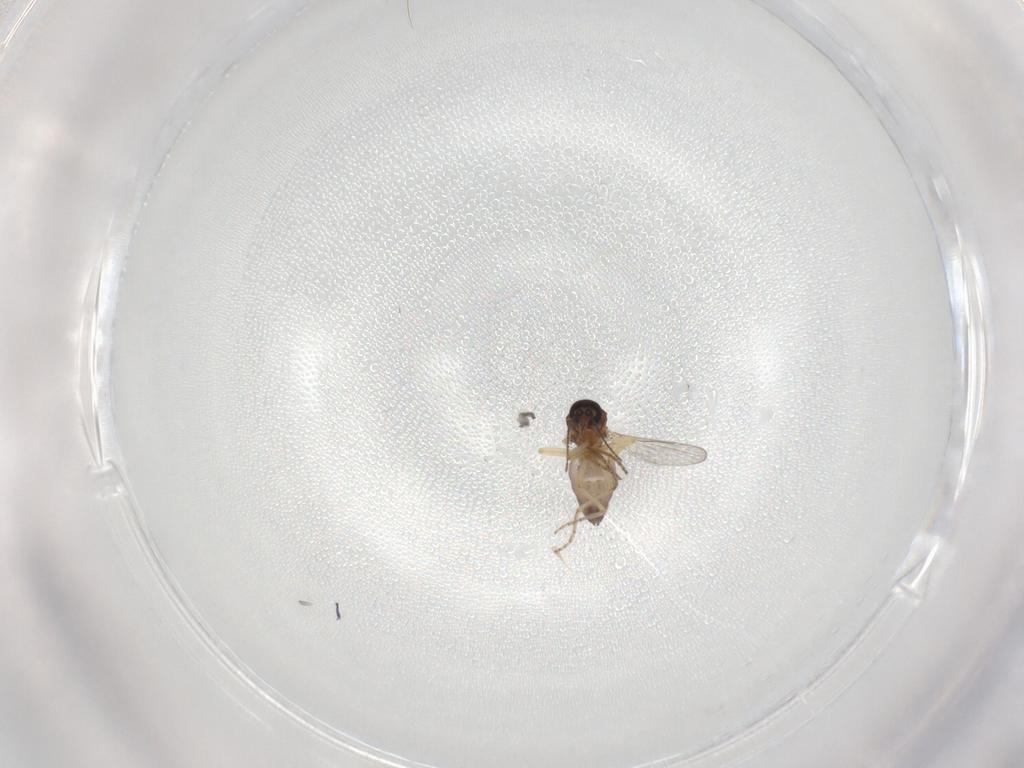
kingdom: Animalia
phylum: Arthropoda
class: Insecta
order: Diptera
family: Ceratopogonidae
